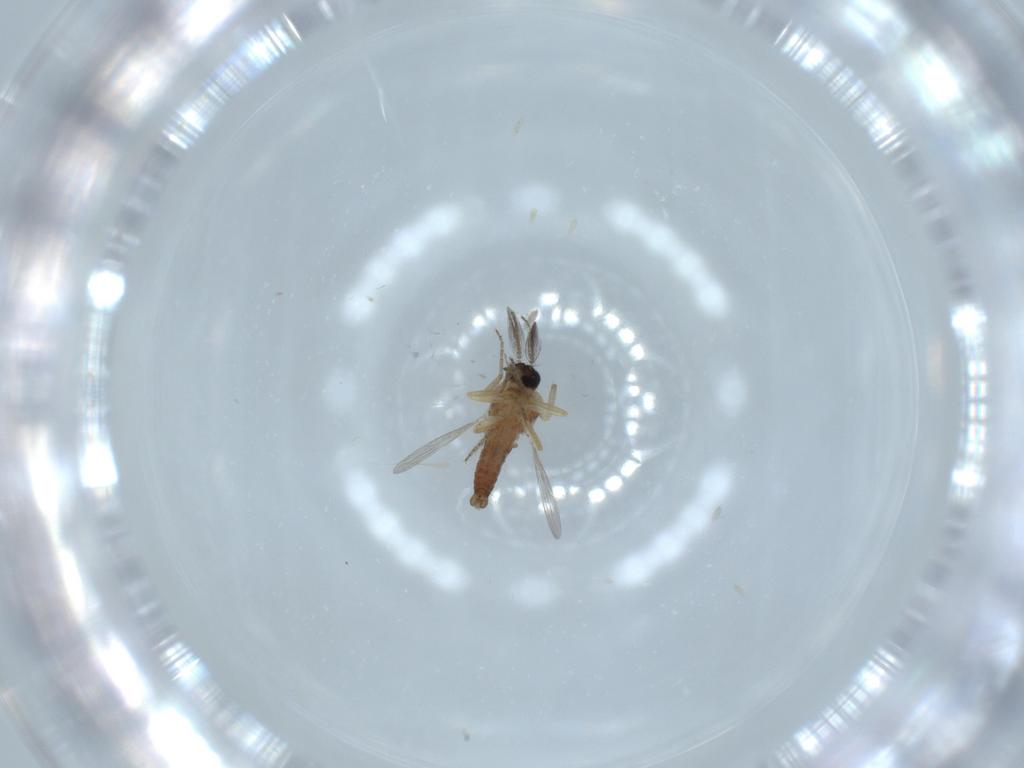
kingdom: Animalia
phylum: Arthropoda
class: Insecta
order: Diptera
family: Ceratopogonidae
